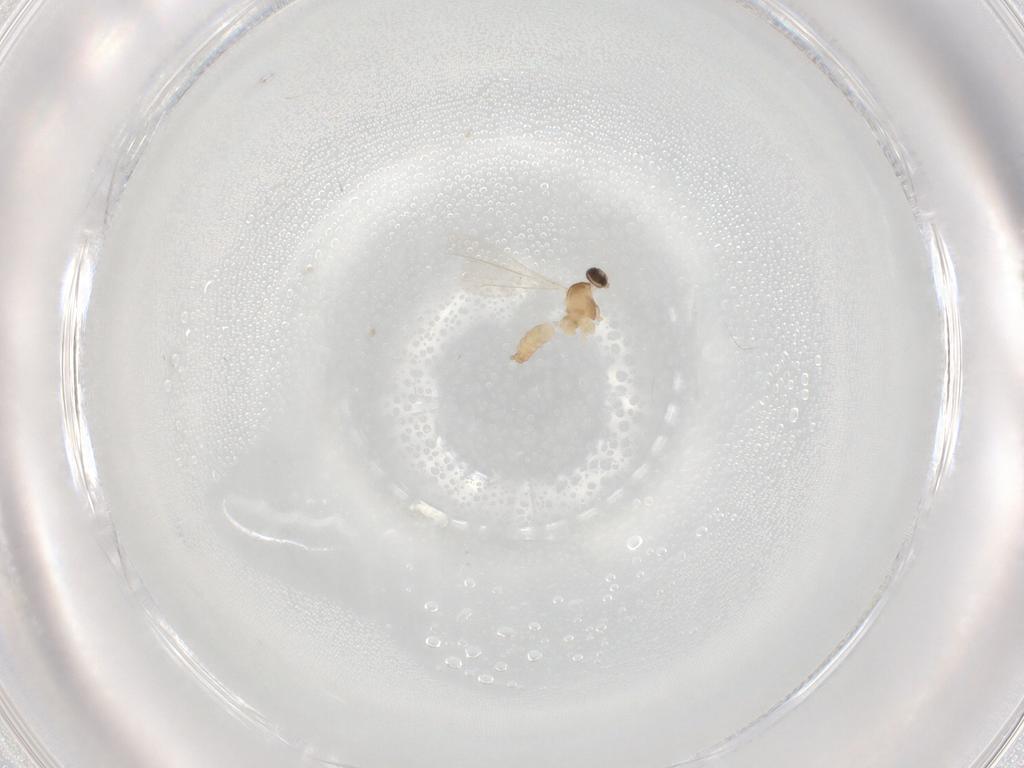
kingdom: Animalia
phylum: Arthropoda
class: Insecta
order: Diptera
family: Cecidomyiidae
